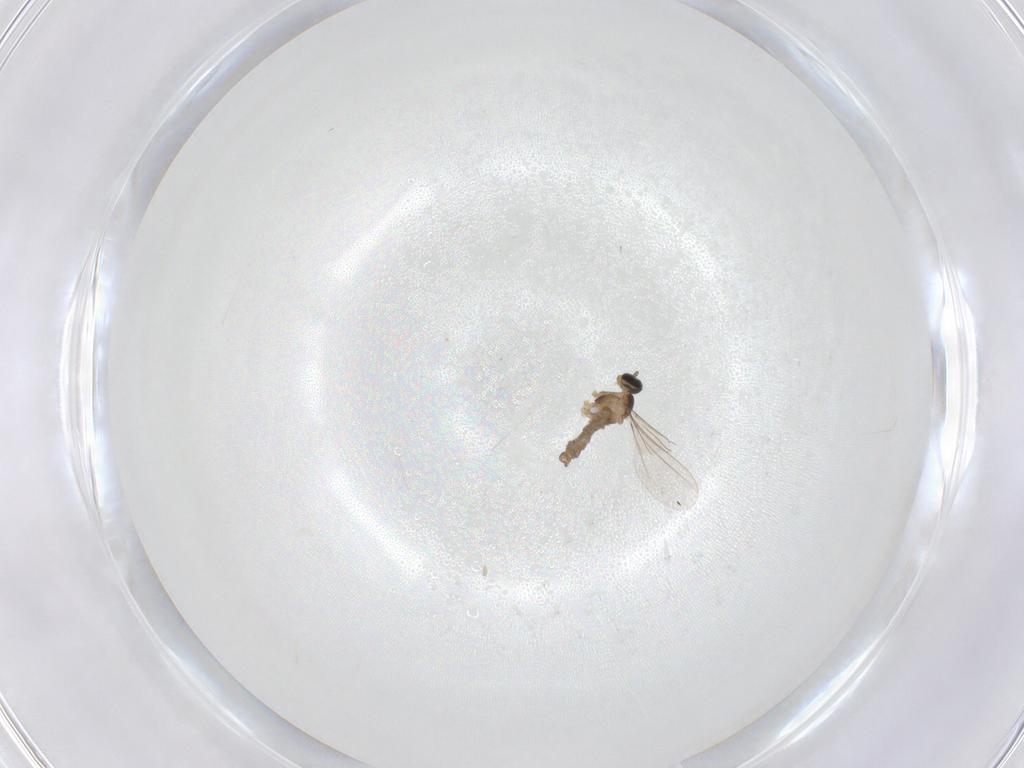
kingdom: Animalia
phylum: Arthropoda
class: Insecta
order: Diptera
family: Cecidomyiidae
